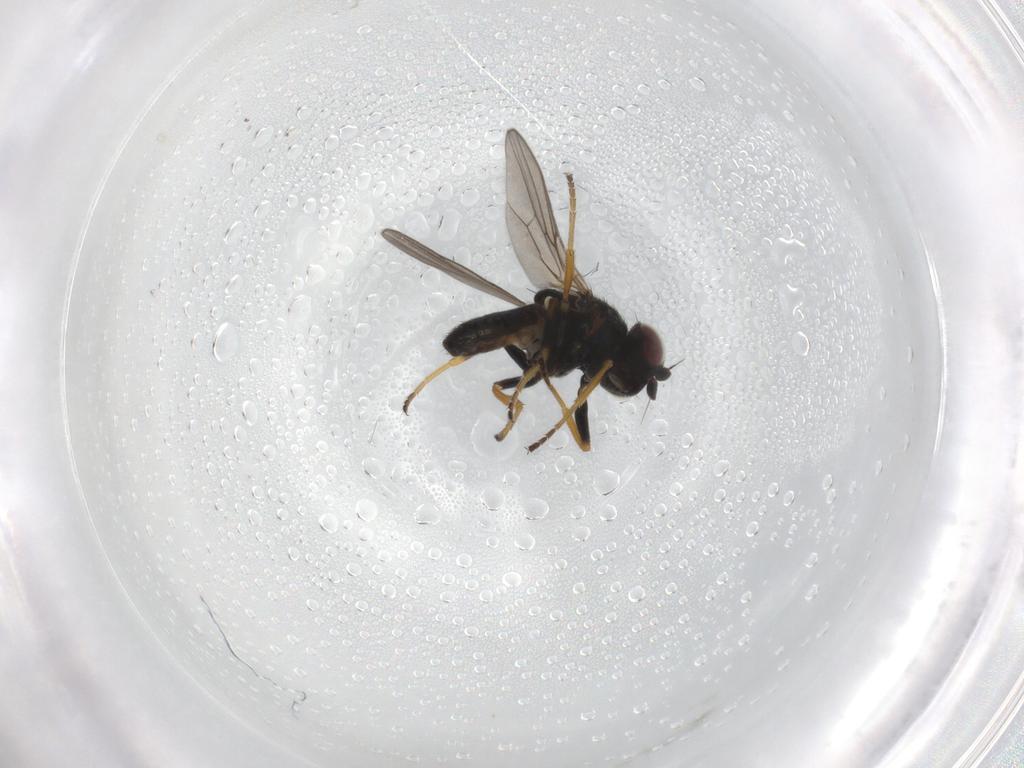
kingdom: Animalia
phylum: Arthropoda
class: Insecta
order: Diptera
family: Chloropidae
